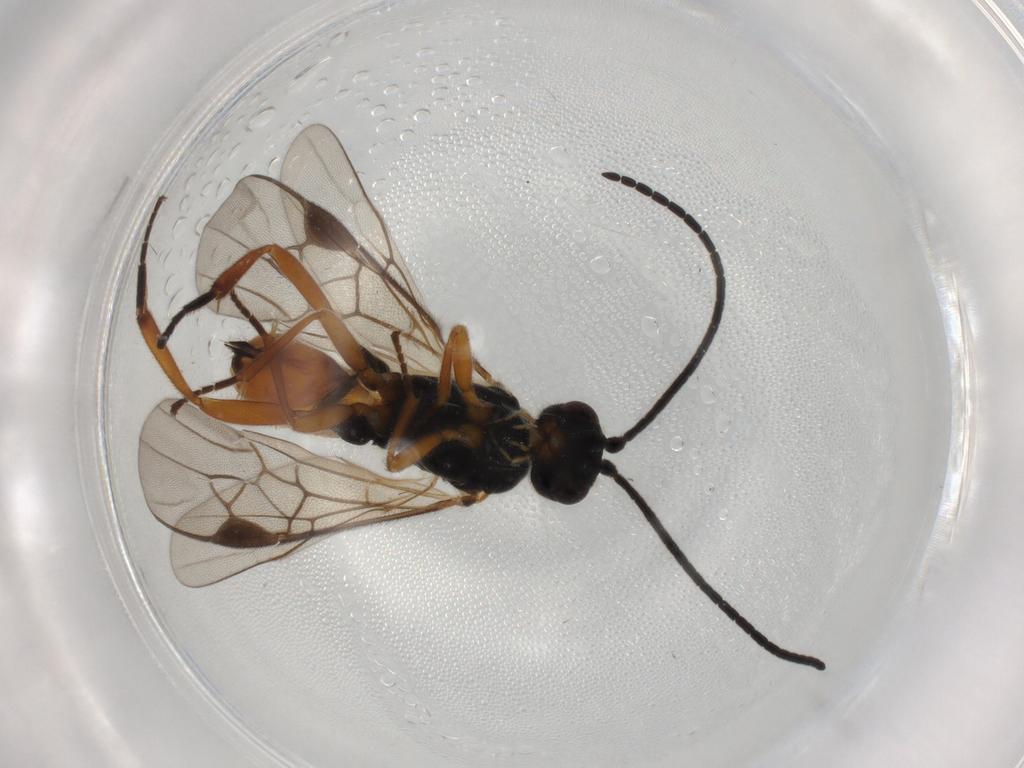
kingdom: Animalia
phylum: Arthropoda
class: Insecta
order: Hymenoptera
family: Braconidae
